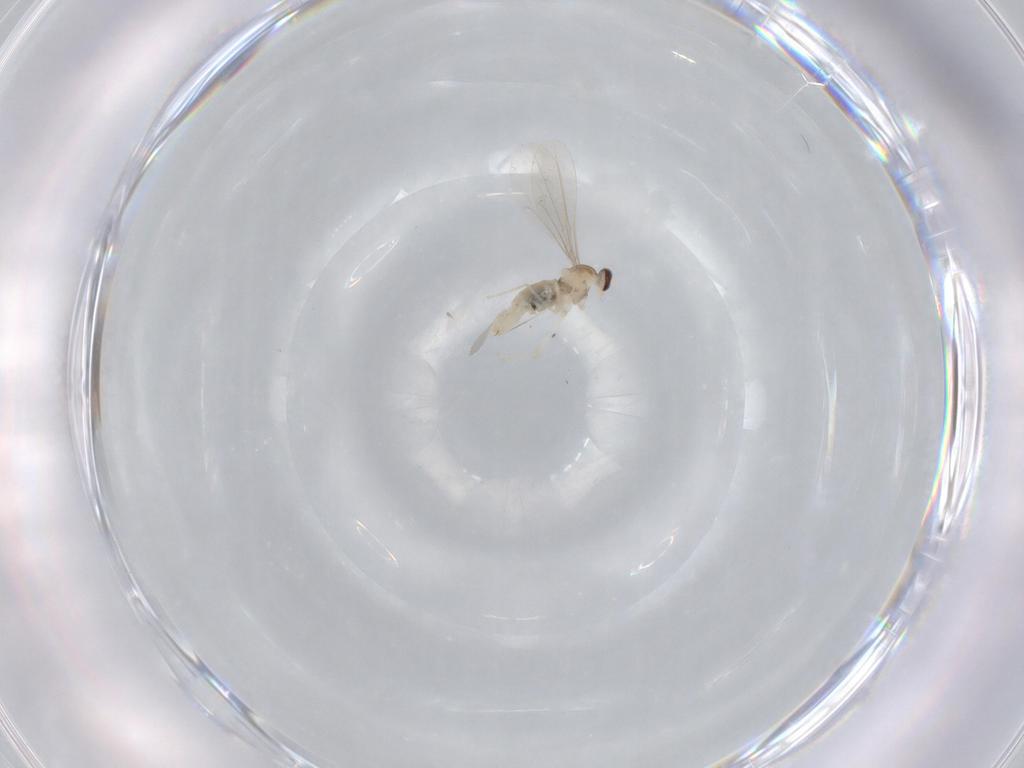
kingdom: Animalia
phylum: Arthropoda
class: Insecta
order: Diptera
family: Cecidomyiidae
